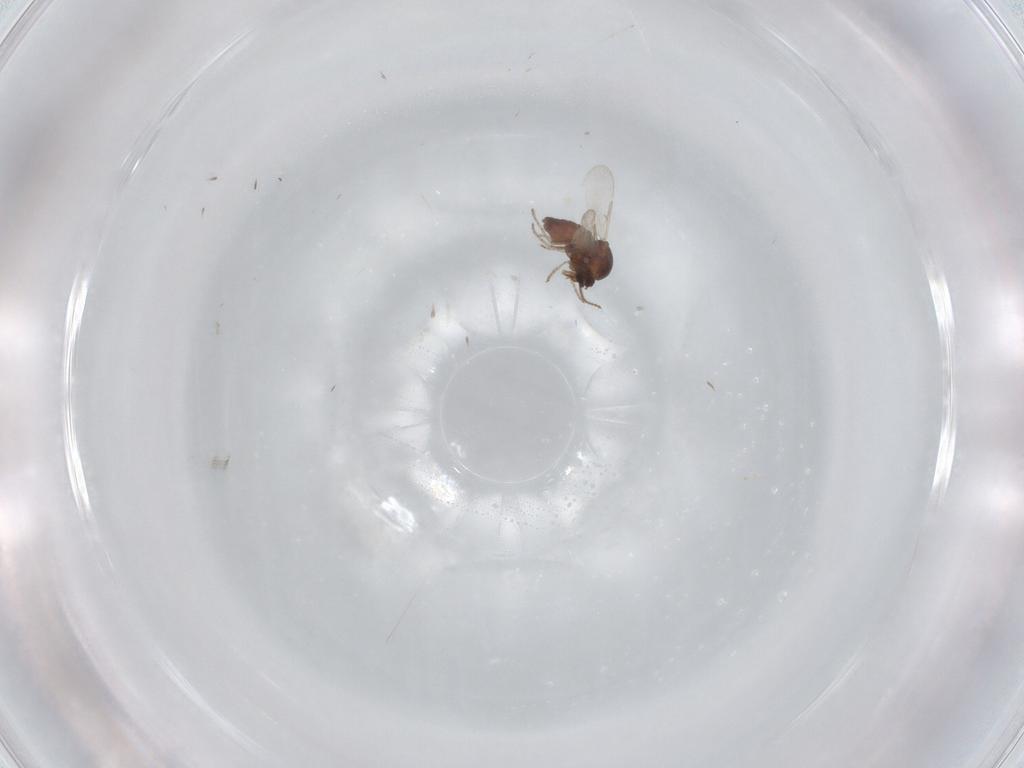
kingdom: Animalia
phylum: Arthropoda
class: Insecta
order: Diptera
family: Ceratopogonidae
